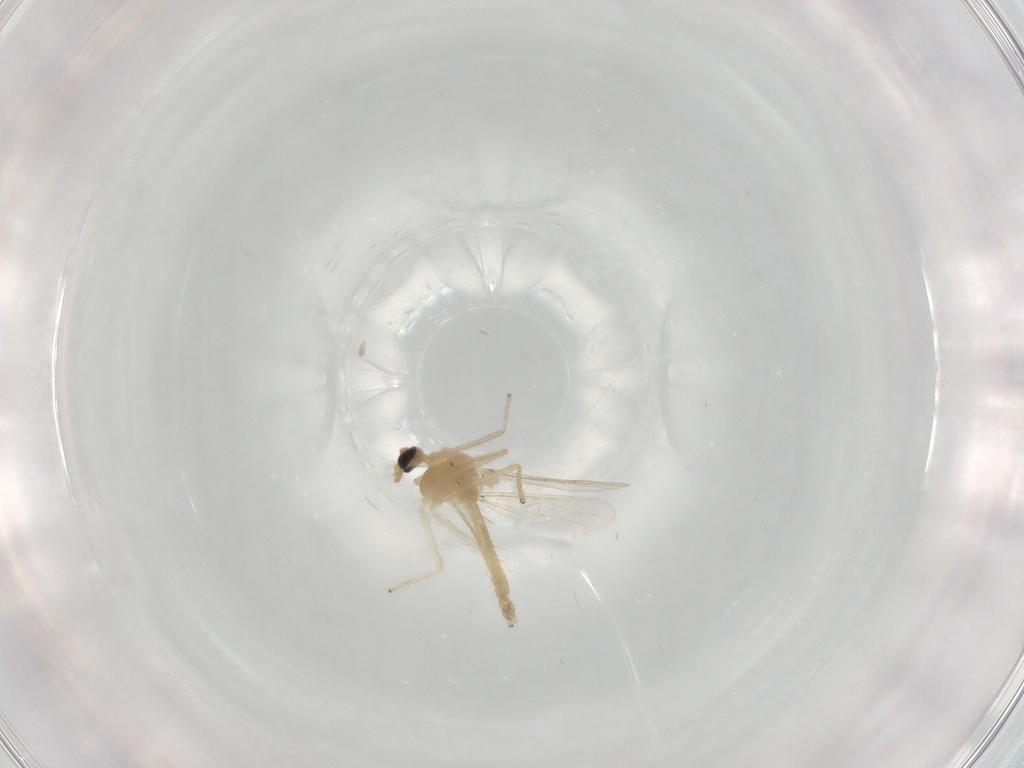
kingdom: Animalia
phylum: Arthropoda
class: Insecta
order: Diptera
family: Chironomidae
